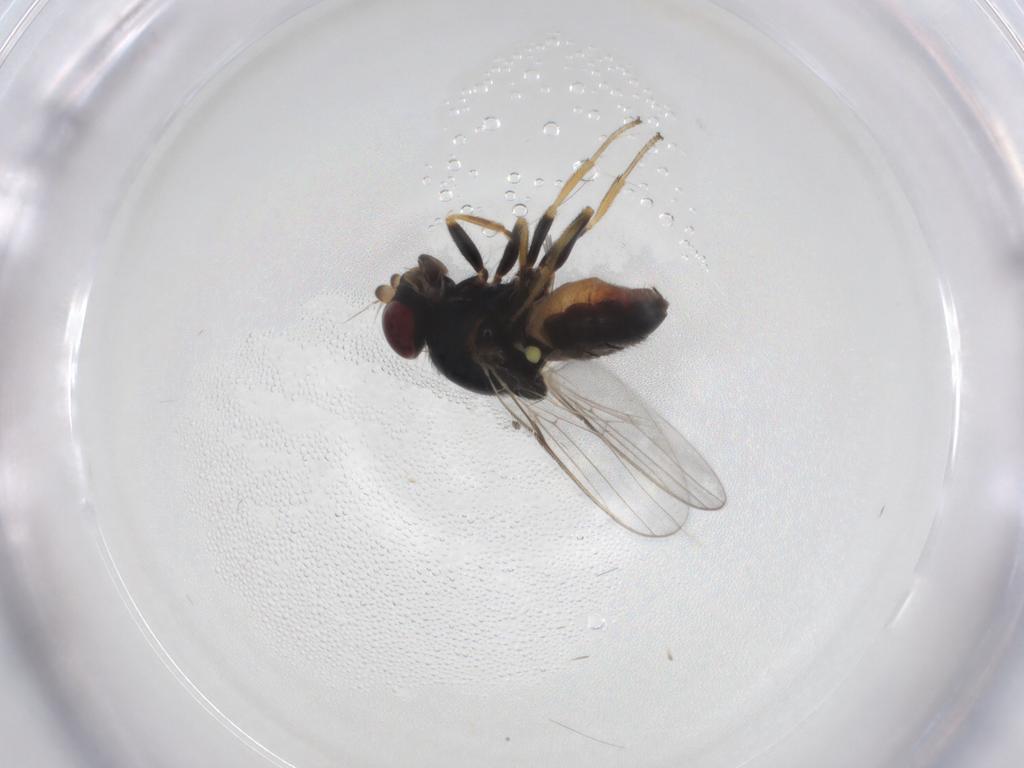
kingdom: Animalia
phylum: Arthropoda
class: Insecta
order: Diptera
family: Chloropidae
